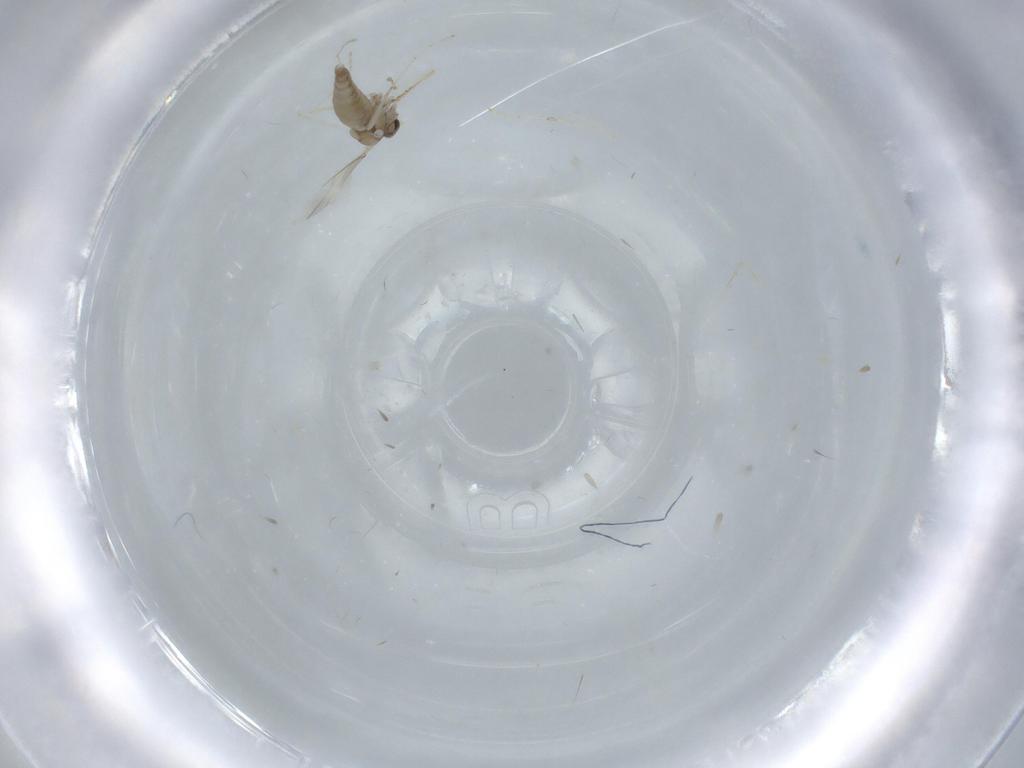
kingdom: Animalia
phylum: Arthropoda
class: Insecta
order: Diptera
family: Cecidomyiidae
